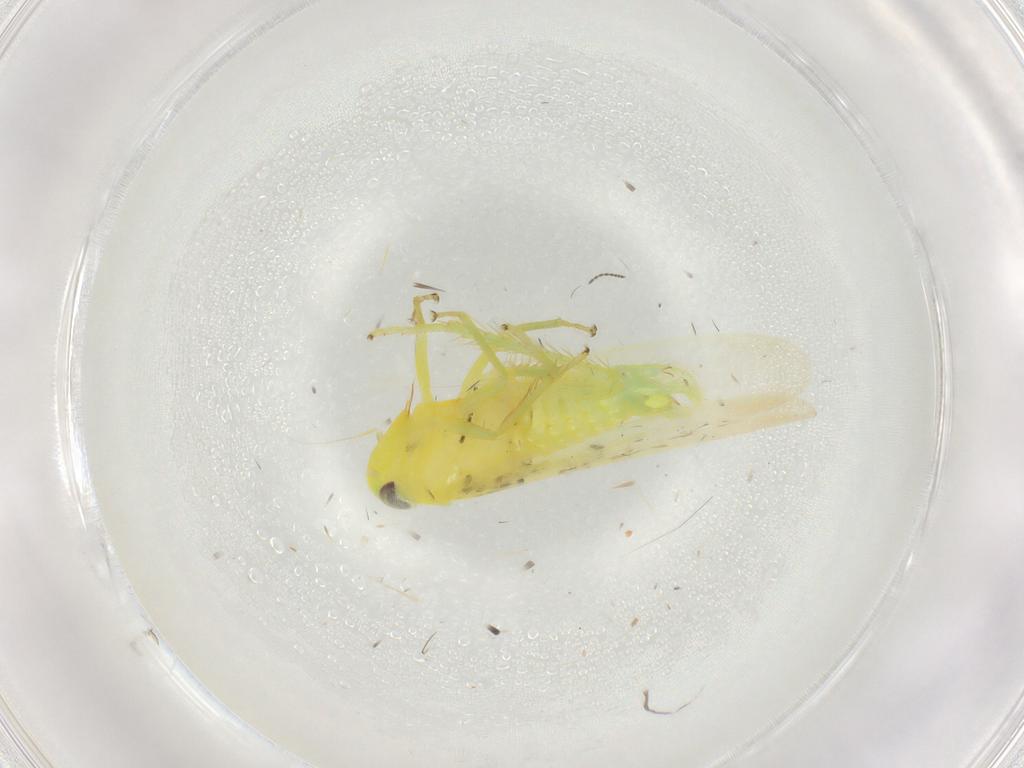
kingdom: Animalia
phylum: Arthropoda
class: Insecta
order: Hemiptera
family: Cicadellidae
